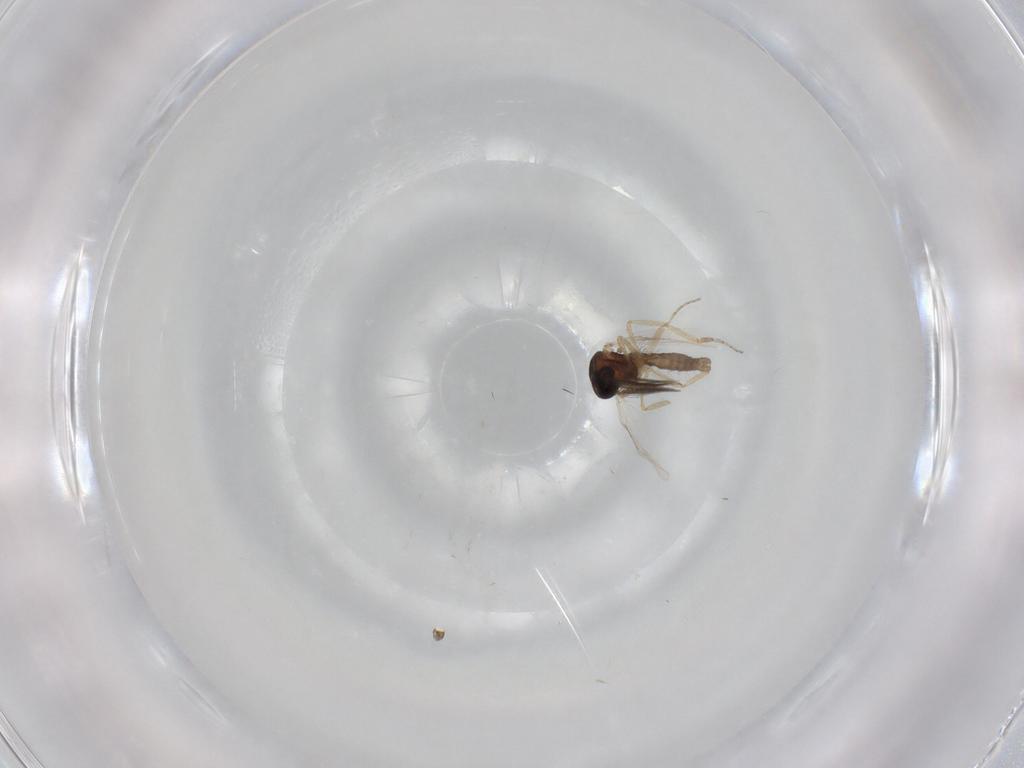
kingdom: Animalia
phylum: Arthropoda
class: Insecta
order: Diptera
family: Ceratopogonidae
